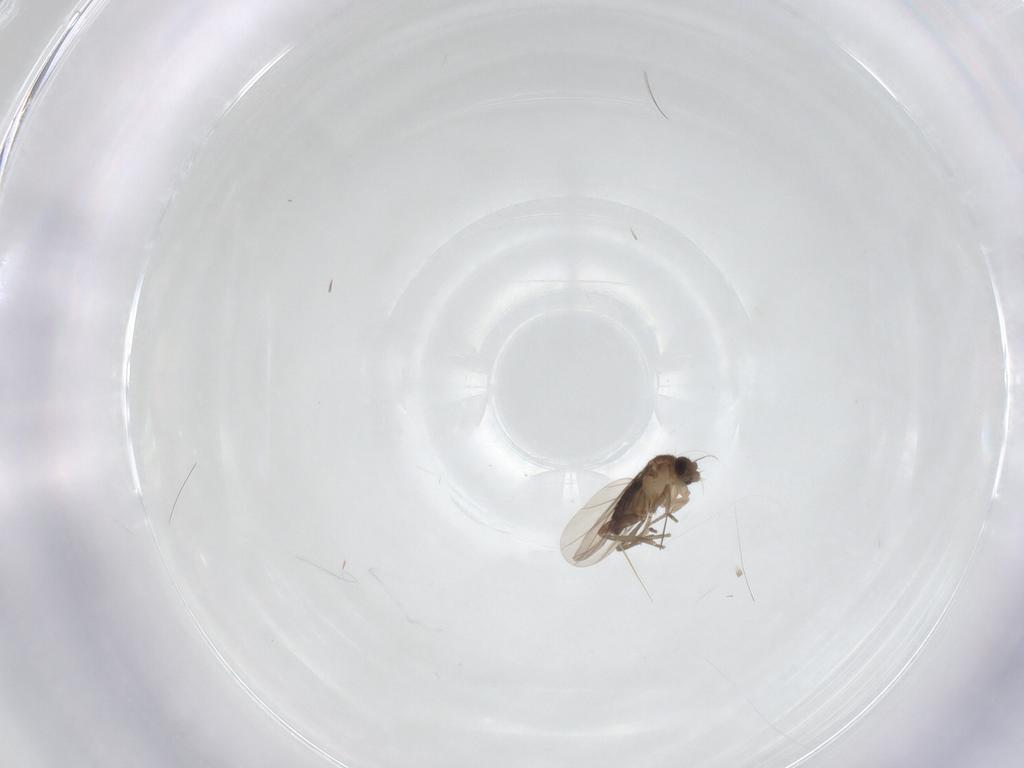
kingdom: Animalia
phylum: Arthropoda
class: Insecta
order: Diptera
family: Phoridae
